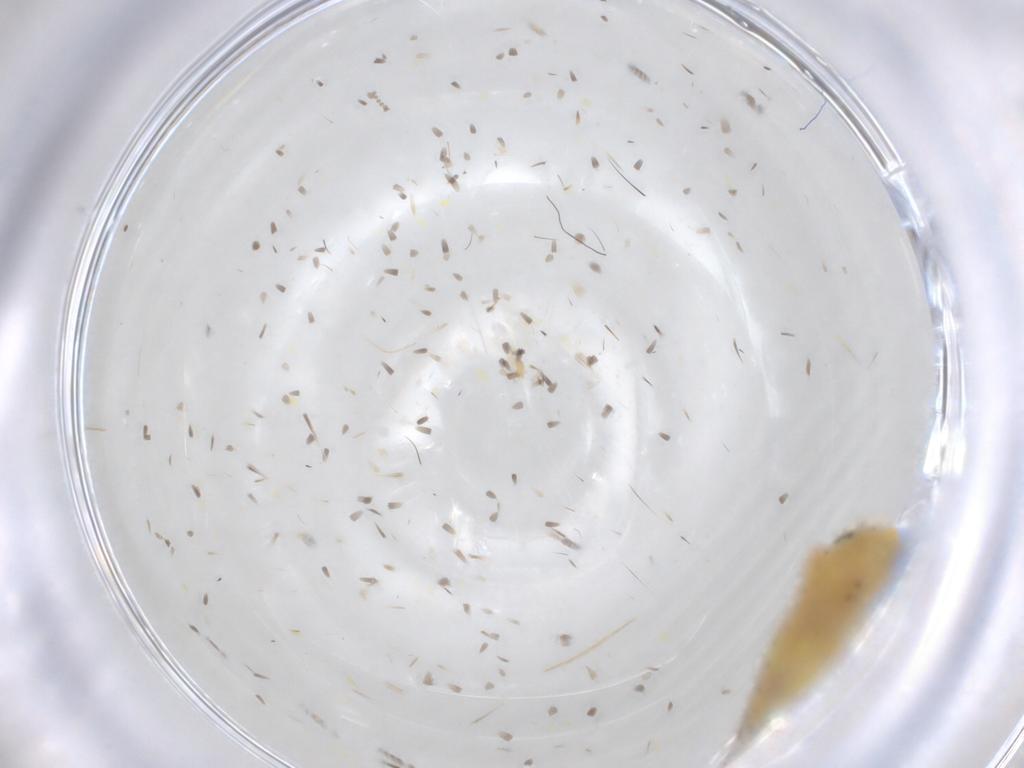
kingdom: Animalia
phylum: Arthropoda
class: Insecta
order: Hemiptera
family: Cicadellidae
